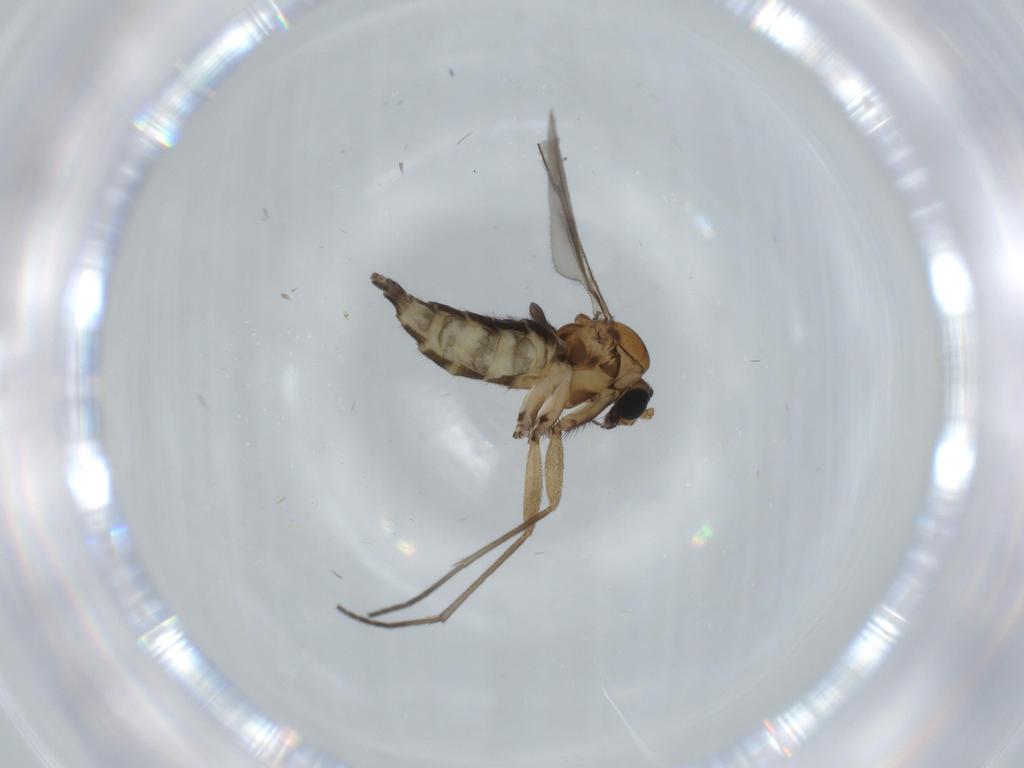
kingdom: Animalia
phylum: Arthropoda
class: Insecta
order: Diptera
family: Sciaridae
